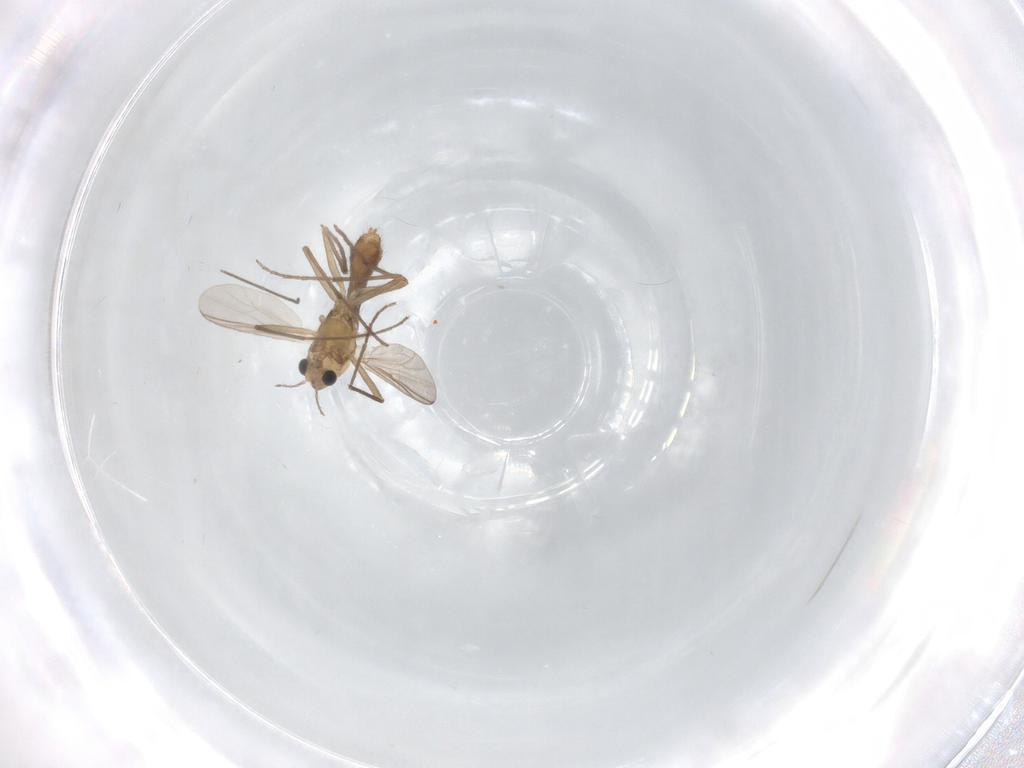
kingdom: Animalia
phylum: Arthropoda
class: Insecta
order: Diptera
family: Chironomidae
